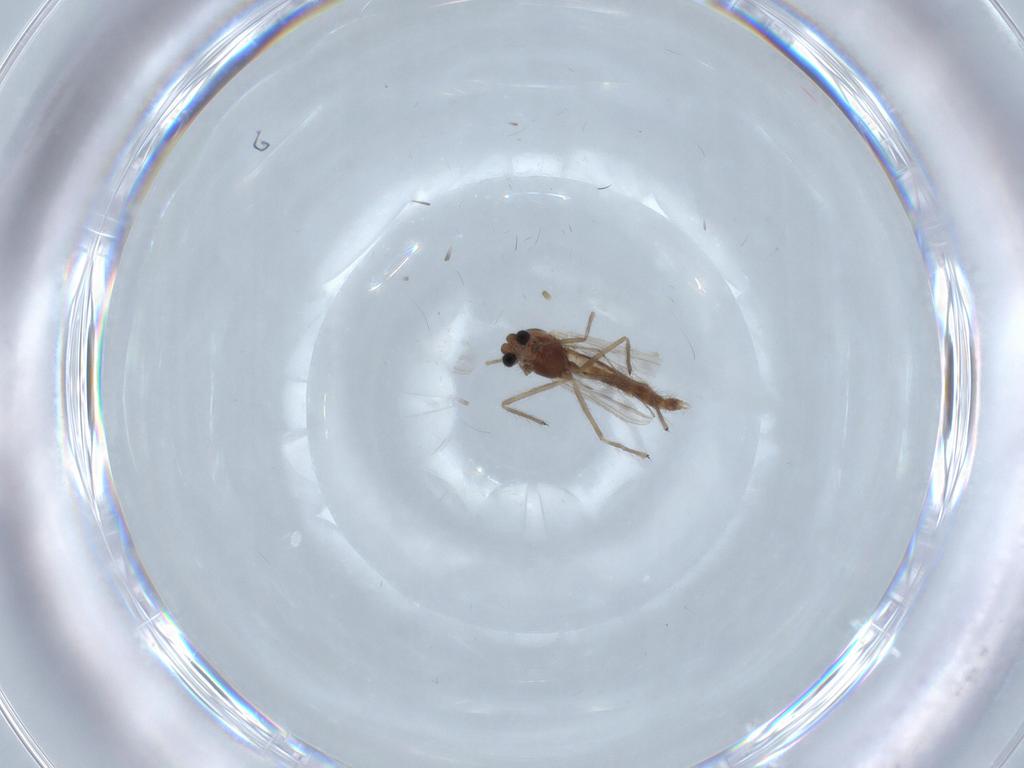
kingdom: Animalia
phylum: Arthropoda
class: Insecta
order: Diptera
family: Chironomidae
